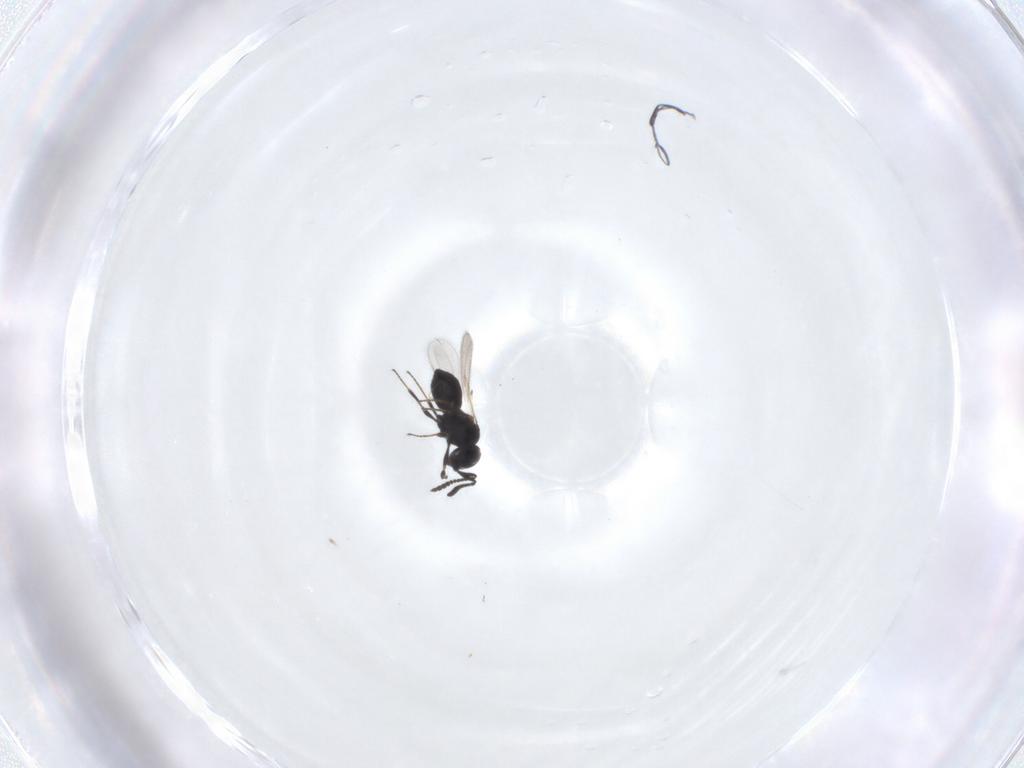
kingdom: Animalia
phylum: Arthropoda
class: Insecta
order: Hymenoptera
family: Scelionidae
